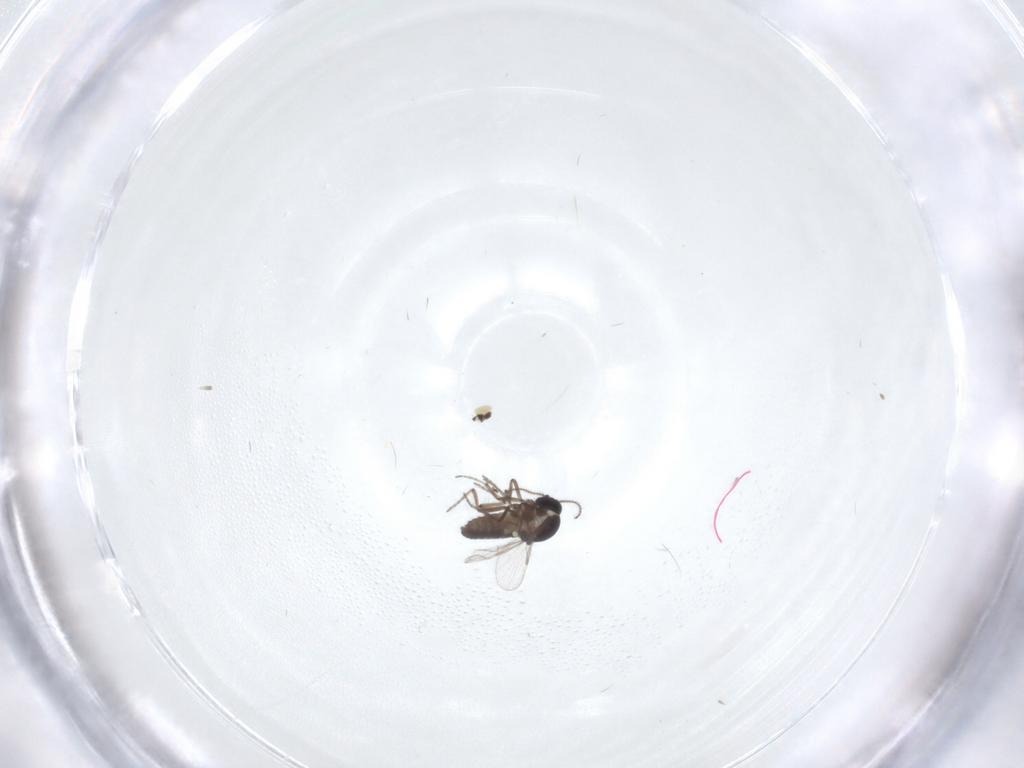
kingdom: Animalia
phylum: Arthropoda
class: Insecta
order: Diptera
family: Ceratopogonidae
